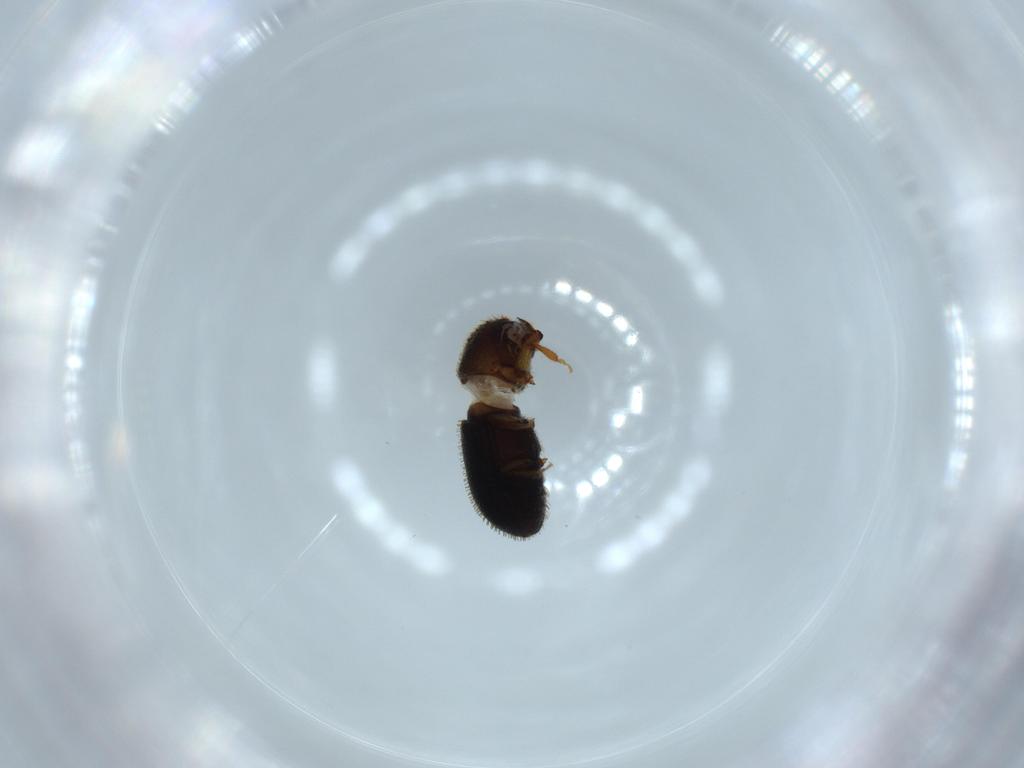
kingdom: Animalia
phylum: Arthropoda
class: Insecta
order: Coleoptera
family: Curculionidae
